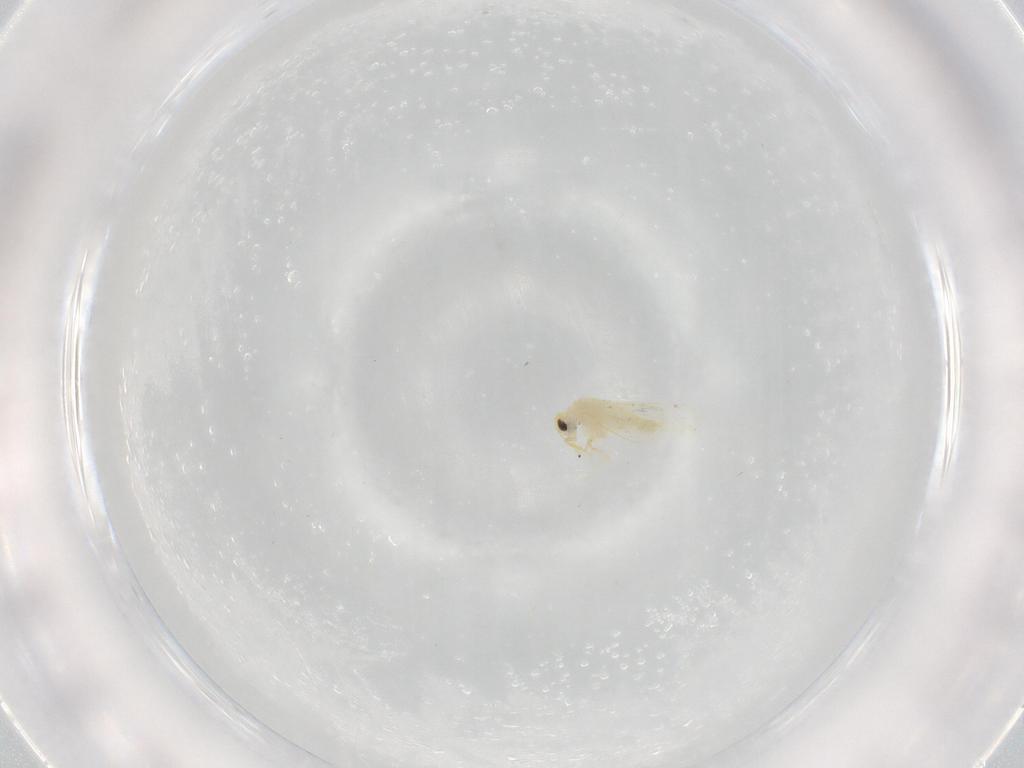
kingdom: Animalia
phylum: Arthropoda
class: Insecta
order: Hemiptera
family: Aleyrodidae
